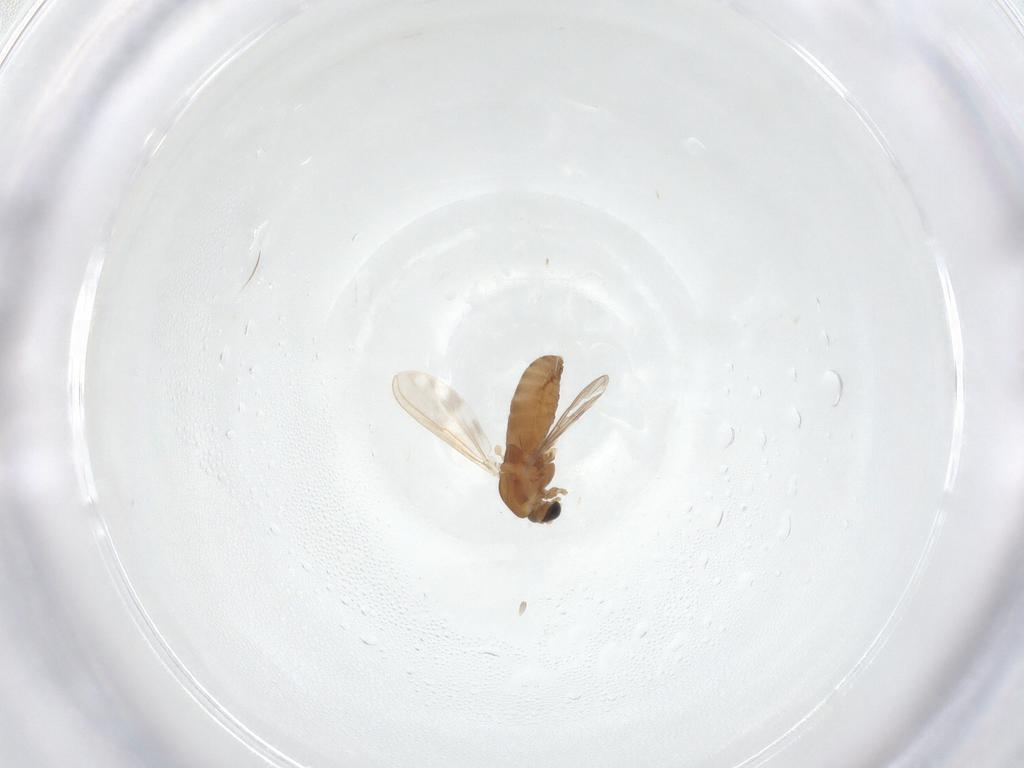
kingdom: Animalia
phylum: Arthropoda
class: Insecta
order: Diptera
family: Chironomidae
